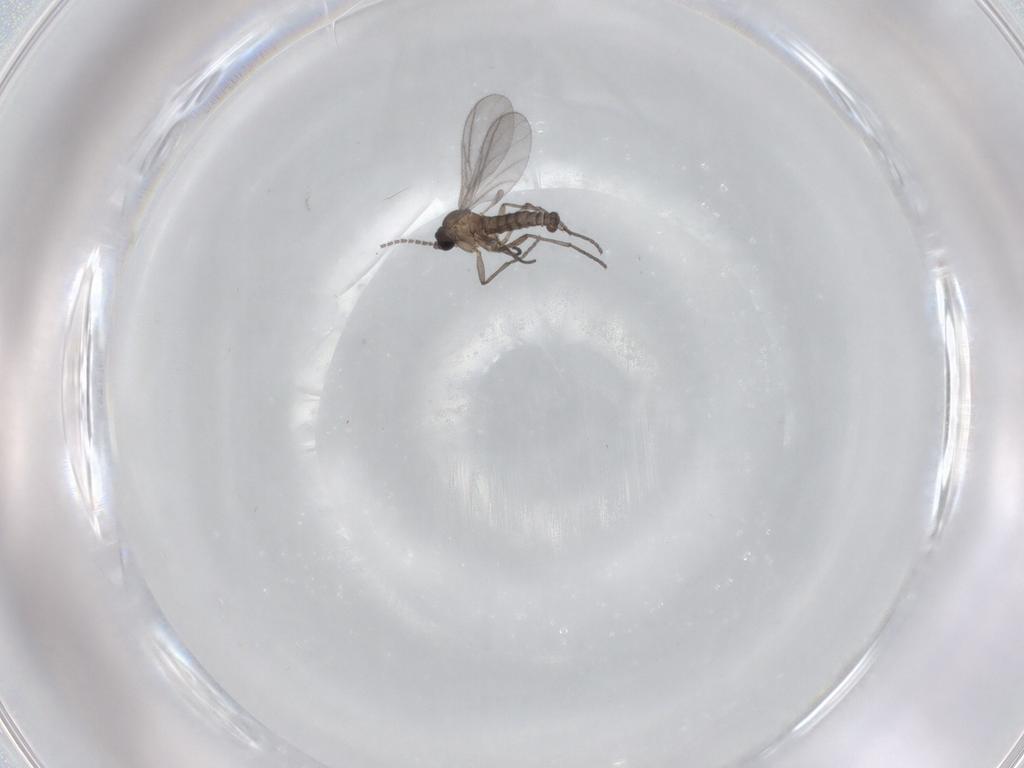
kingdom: Animalia
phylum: Arthropoda
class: Insecta
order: Diptera
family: Sciaridae
